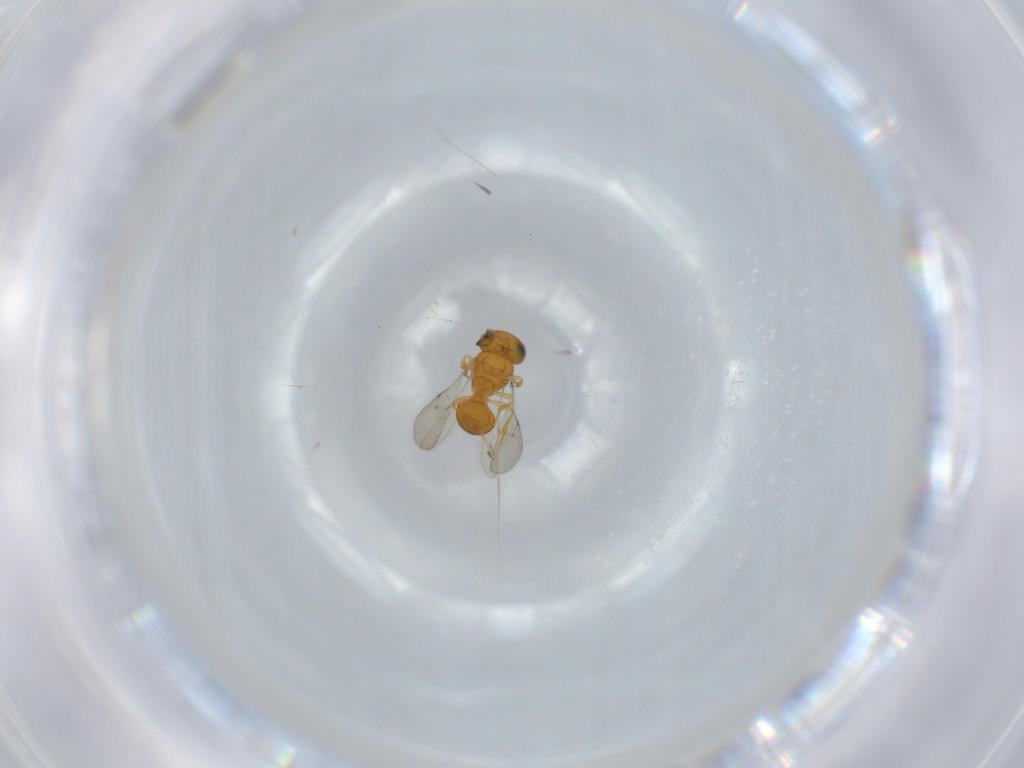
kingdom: Animalia
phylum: Arthropoda
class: Insecta
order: Hymenoptera
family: Scelionidae
